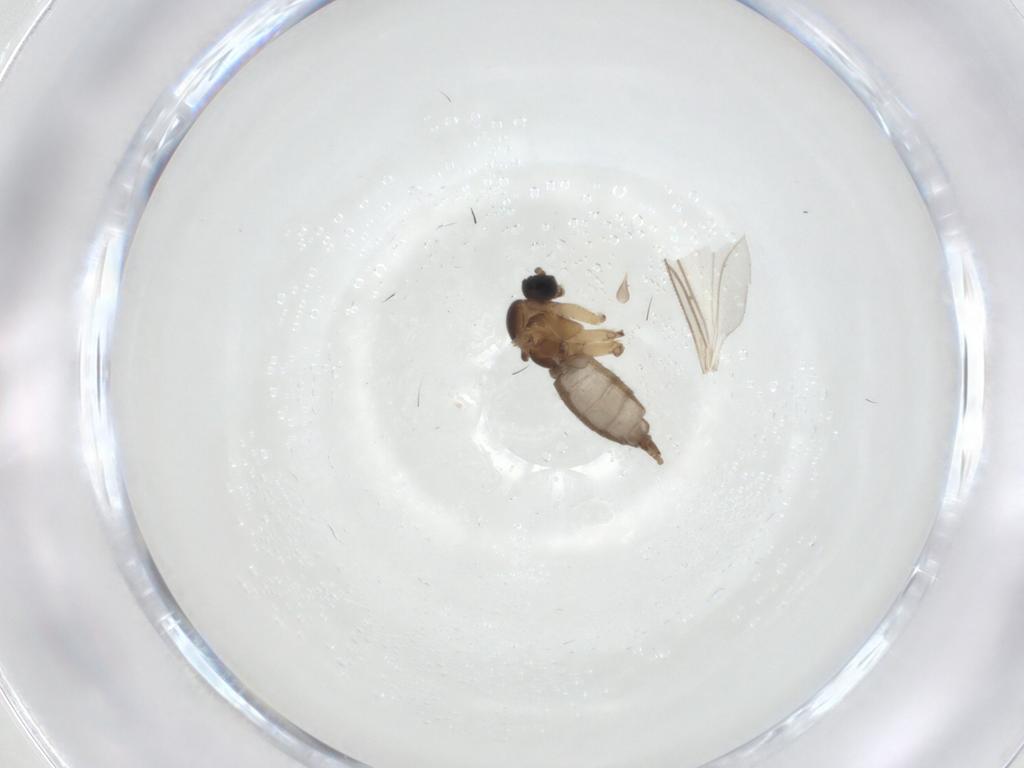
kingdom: Animalia
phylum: Arthropoda
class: Insecta
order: Diptera
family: Sciaridae
